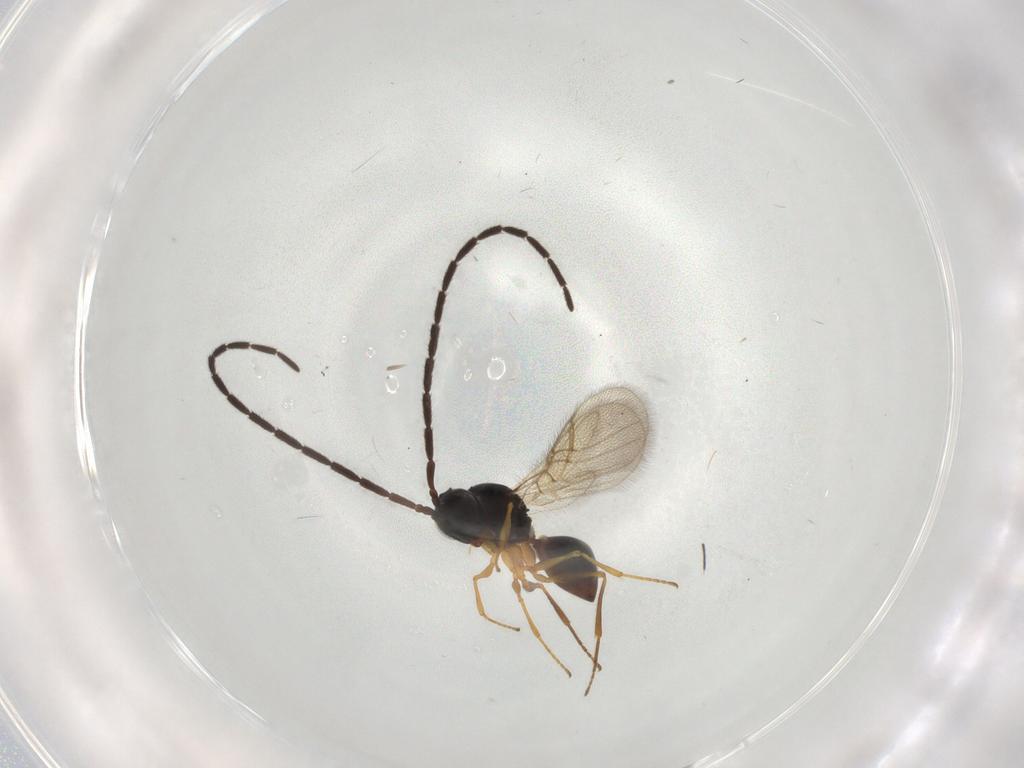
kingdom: Animalia
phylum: Arthropoda
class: Insecta
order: Hymenoptera
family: Figitidae
